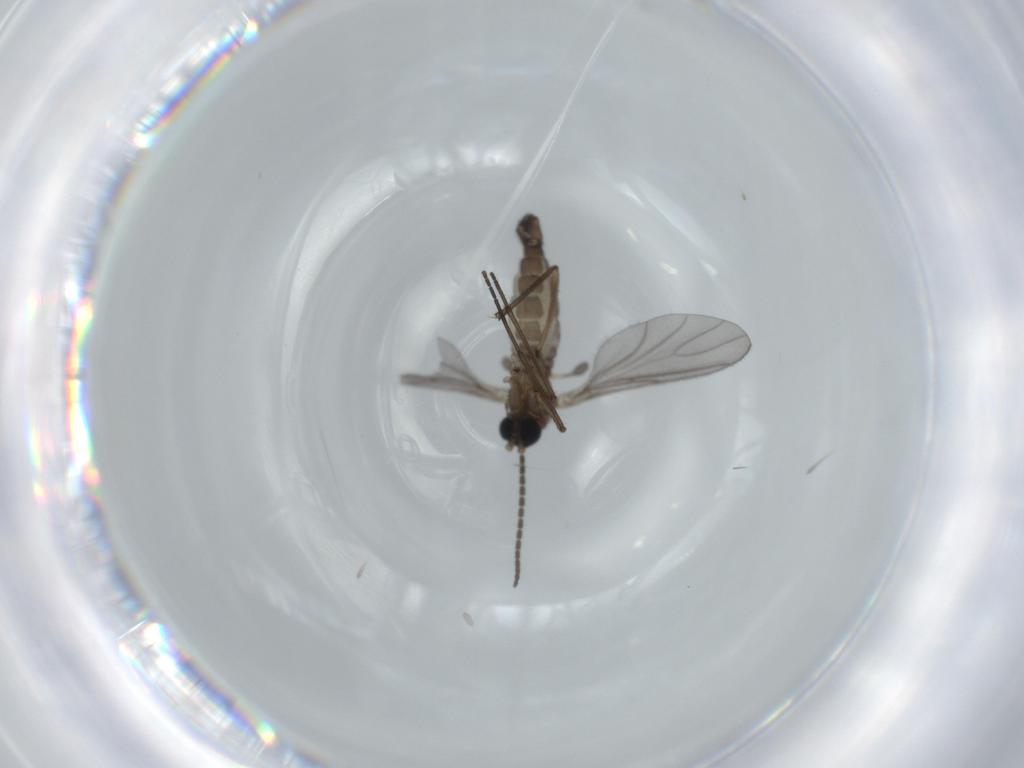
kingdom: Animalia
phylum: Arthropoda
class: Insecta
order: Diptera
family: Sciaridae
